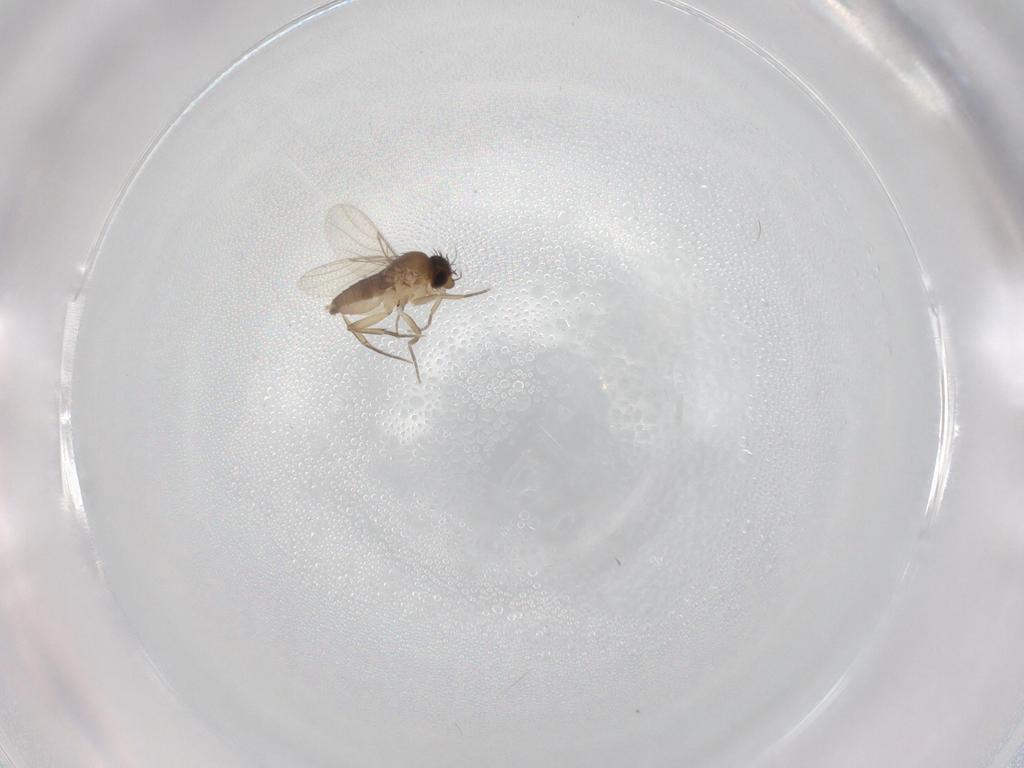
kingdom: Animalia
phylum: Arthropoda
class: Insecta
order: Diptera
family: Phoridae
